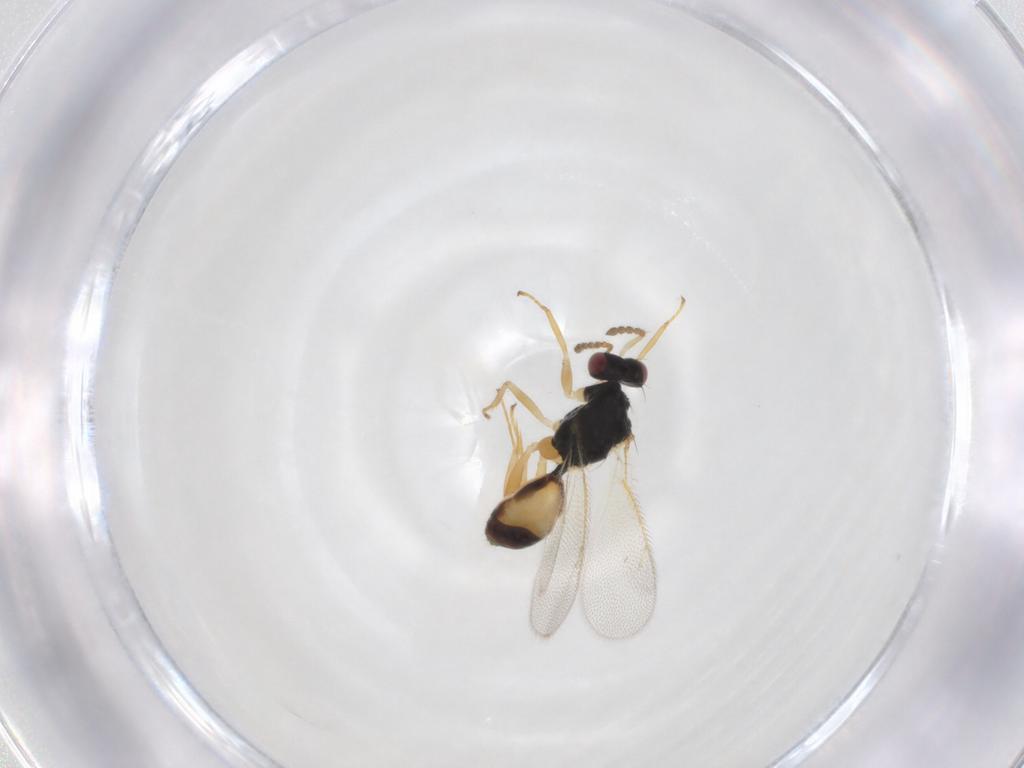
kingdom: Animalia
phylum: Arthropoda
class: Insecta
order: Hymenoptera
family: Eulophidae
